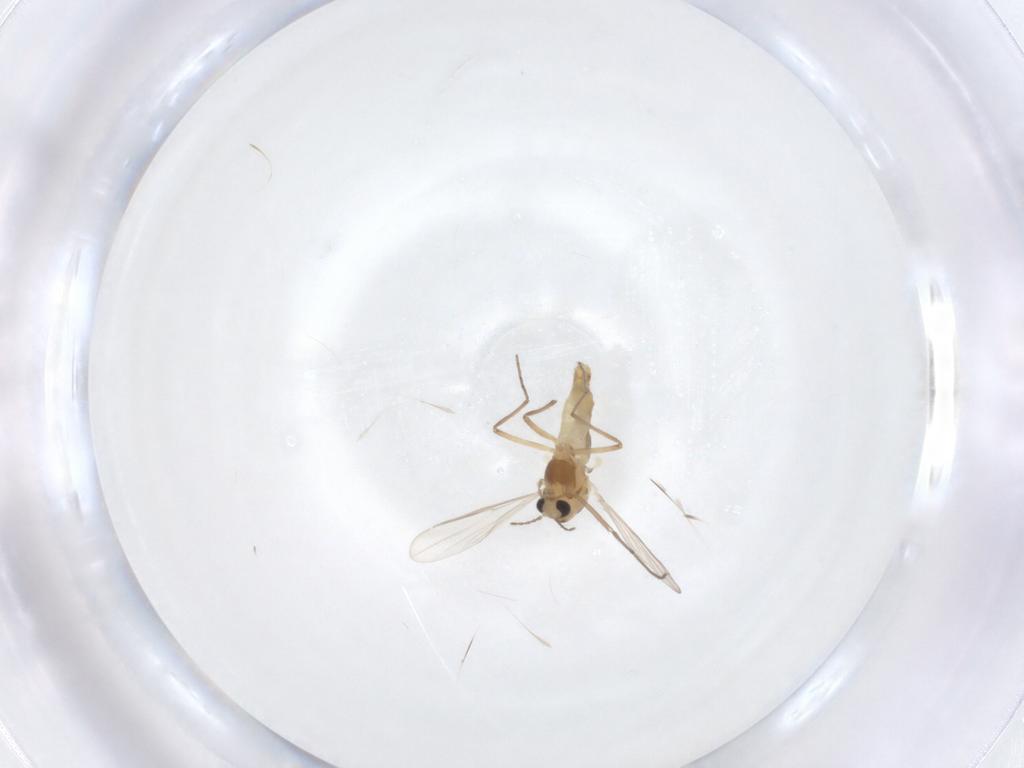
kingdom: Animalia
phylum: Arthropoda
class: Insecta
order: Diptera
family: Chironomidae
